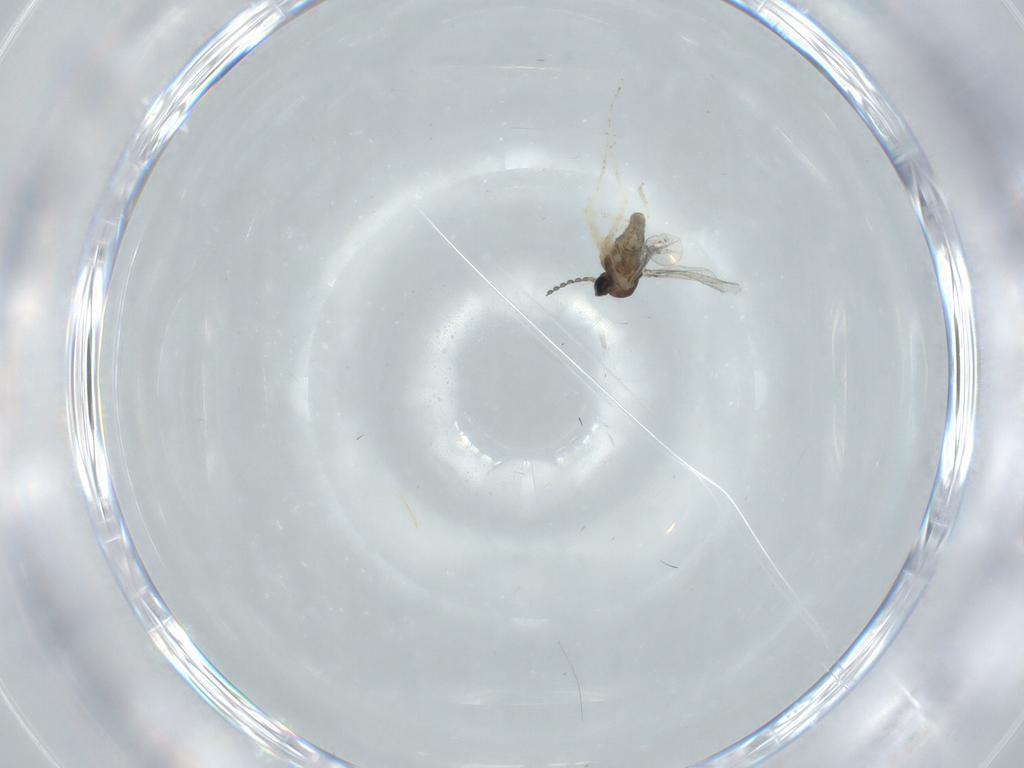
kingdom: Animalia
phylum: Arthropoda
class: Insecta
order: Diptera
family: Cecidomyiidae
